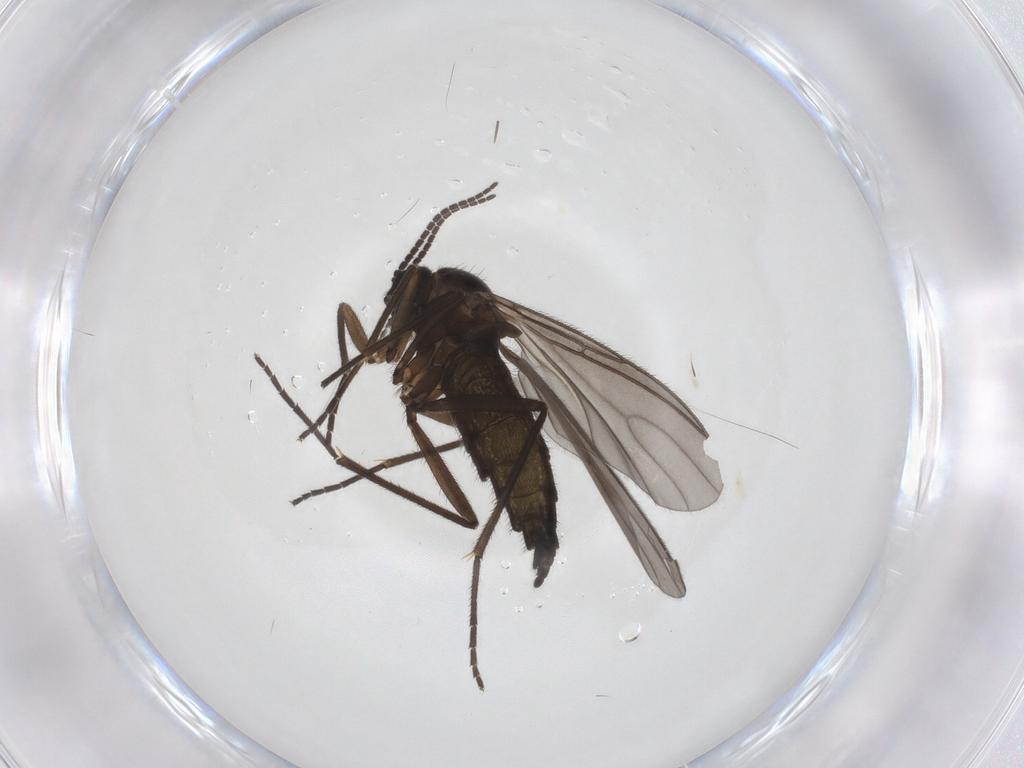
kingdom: Animalia
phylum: Arthropoda
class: Insecta
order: Diptera
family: Sciaridae
